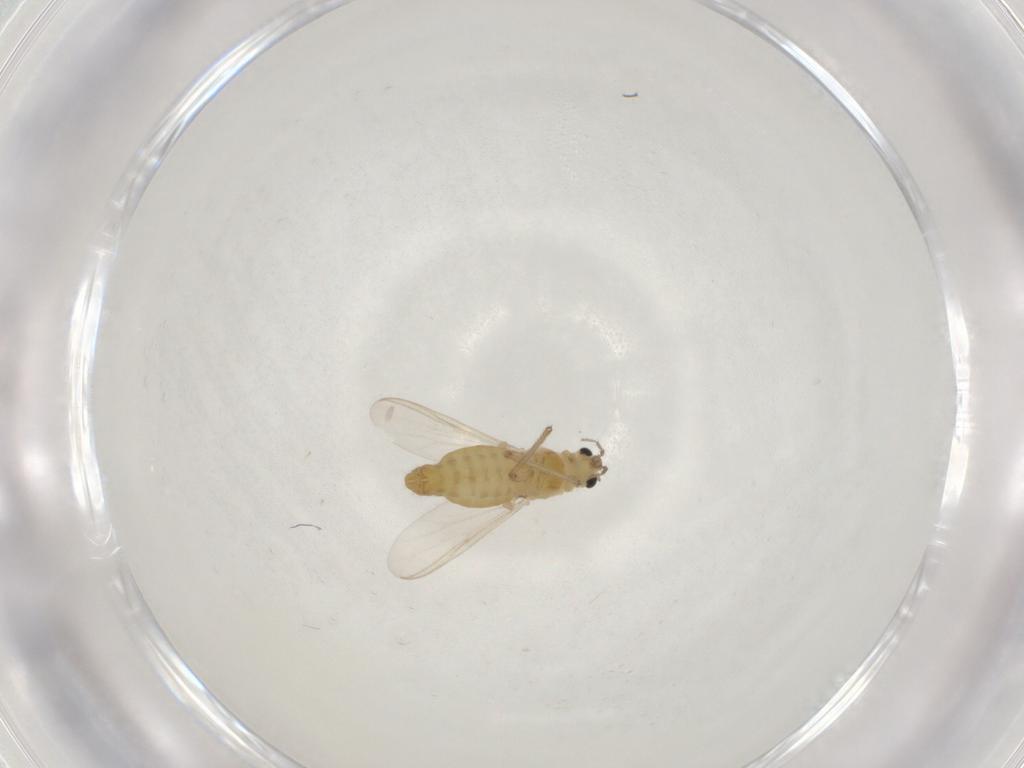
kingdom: Animalia
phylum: Arthropoda
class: Insecta
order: Diptera
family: Chironomidae
